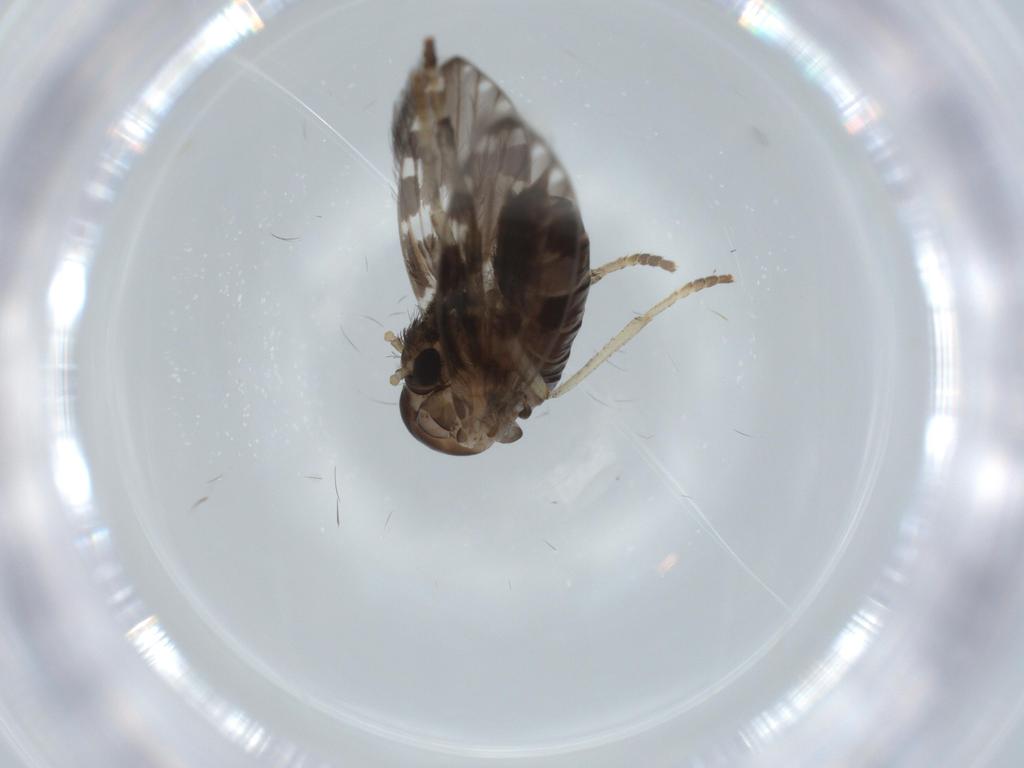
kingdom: Animalia
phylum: Arthropoda
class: Insecta
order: Diptera
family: Psychodidae
